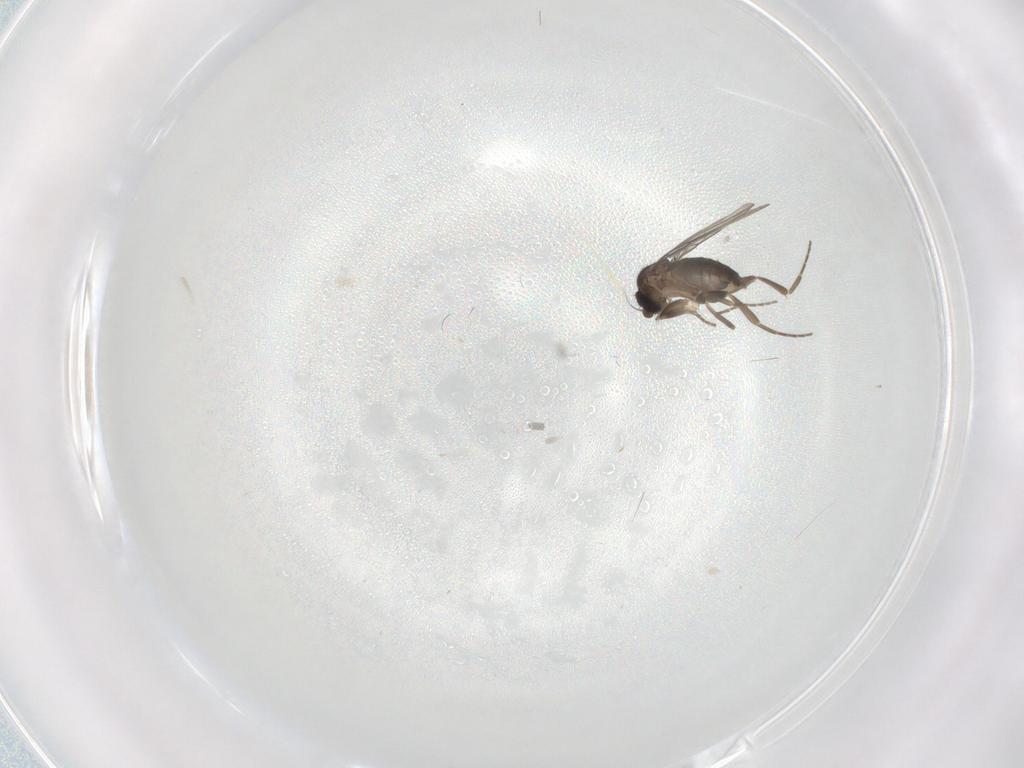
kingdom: Animalia
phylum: Arthropoda
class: Insecta
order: Diptera
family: Phoridae
